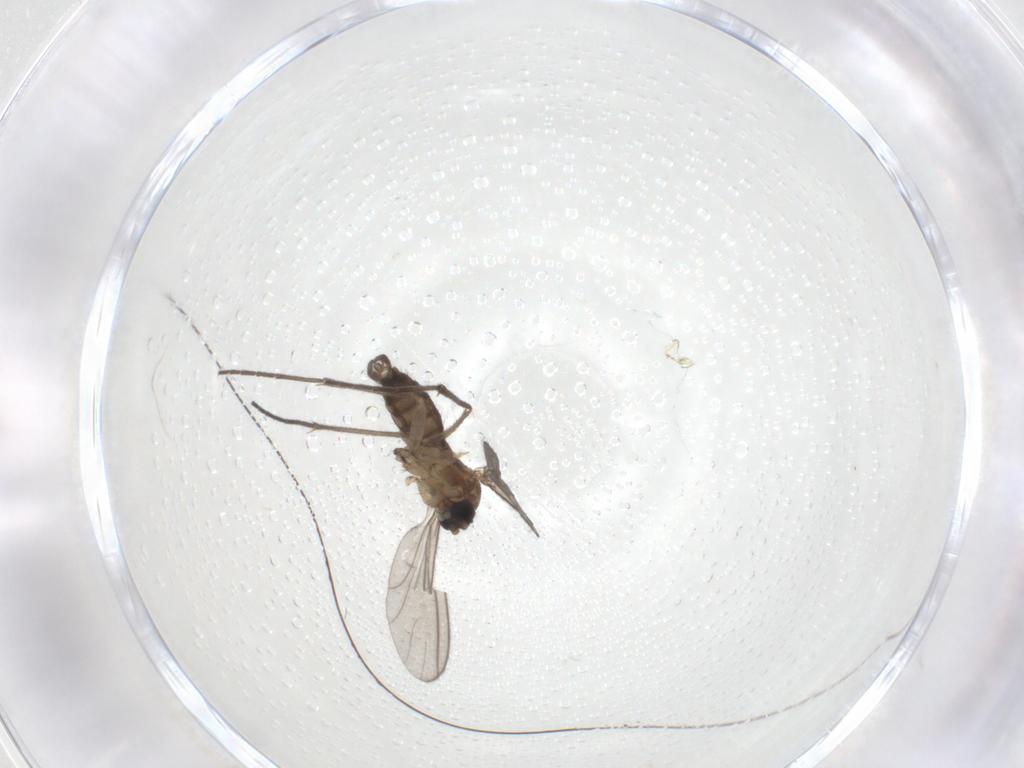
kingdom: Animalia
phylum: Arthropoda
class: Insecta
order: Diptera
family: Sciaridae
